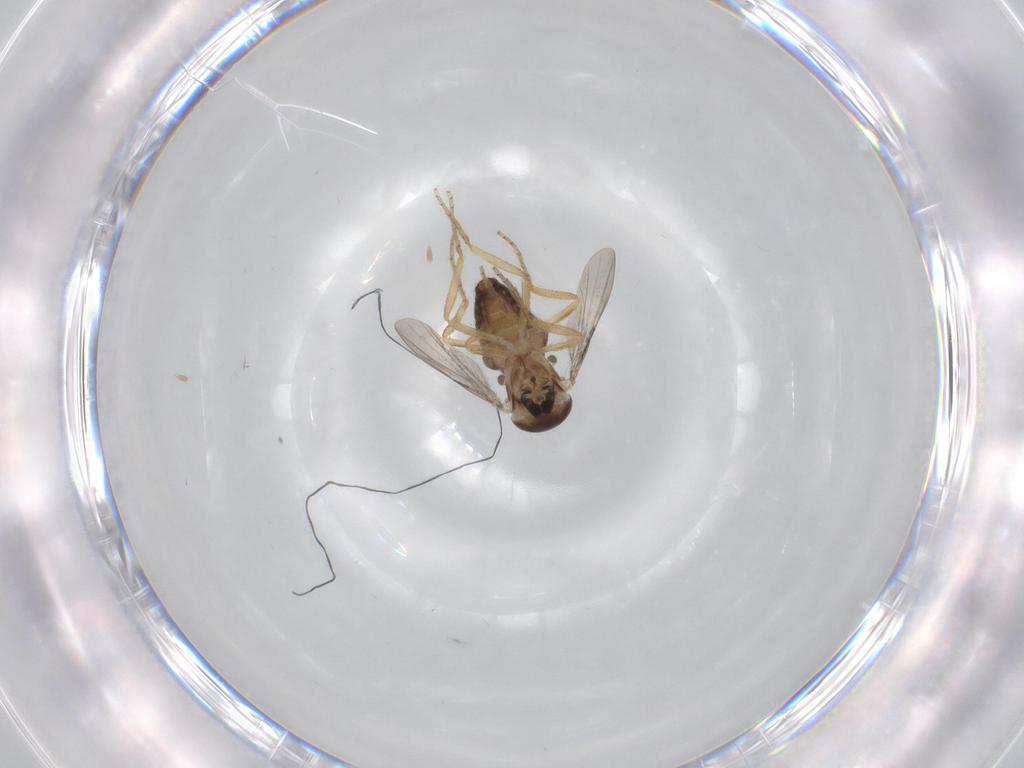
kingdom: Animalia
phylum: Arthropoda
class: Insecta
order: Diptera
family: Ceratopogonidae
